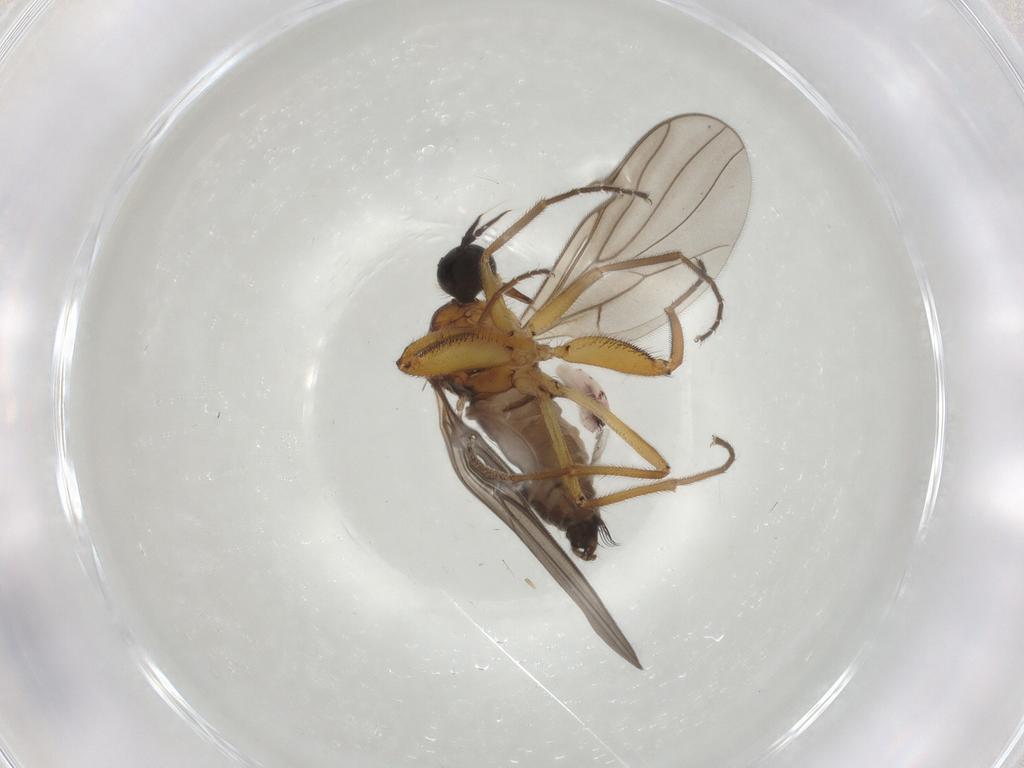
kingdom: Animalia
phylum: Arthropoda
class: Insecta
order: Diptera
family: Hybotidae
